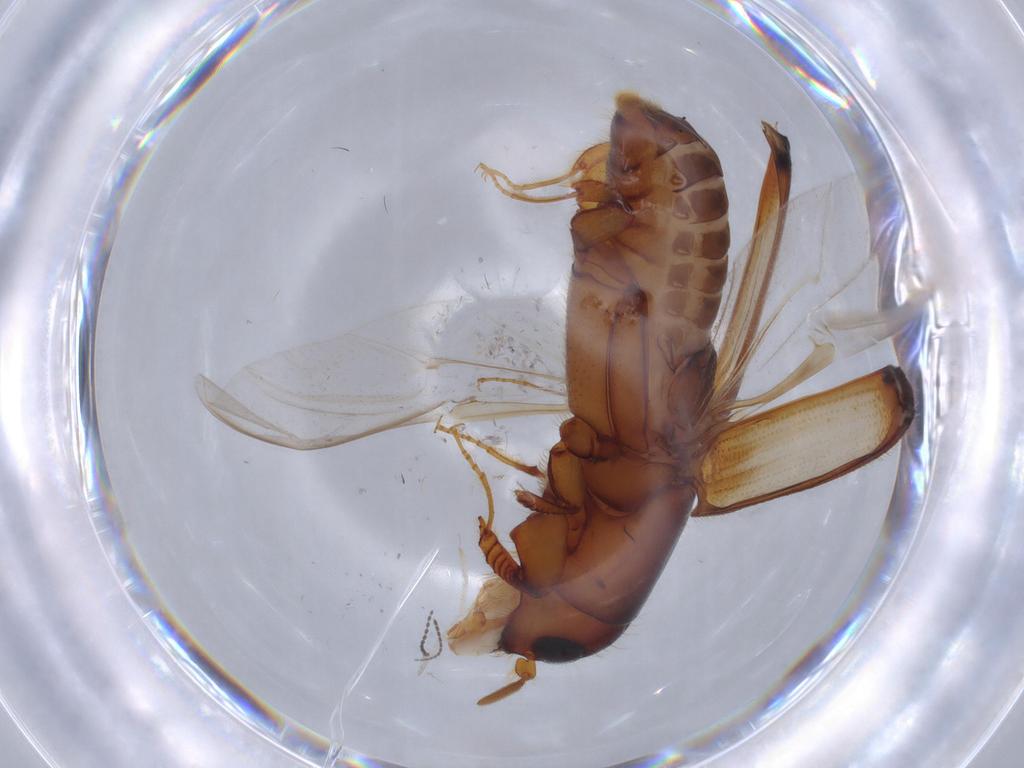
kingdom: Animalia
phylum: Arthropoda
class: Insecta
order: Coleoptera
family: Curculionidae
